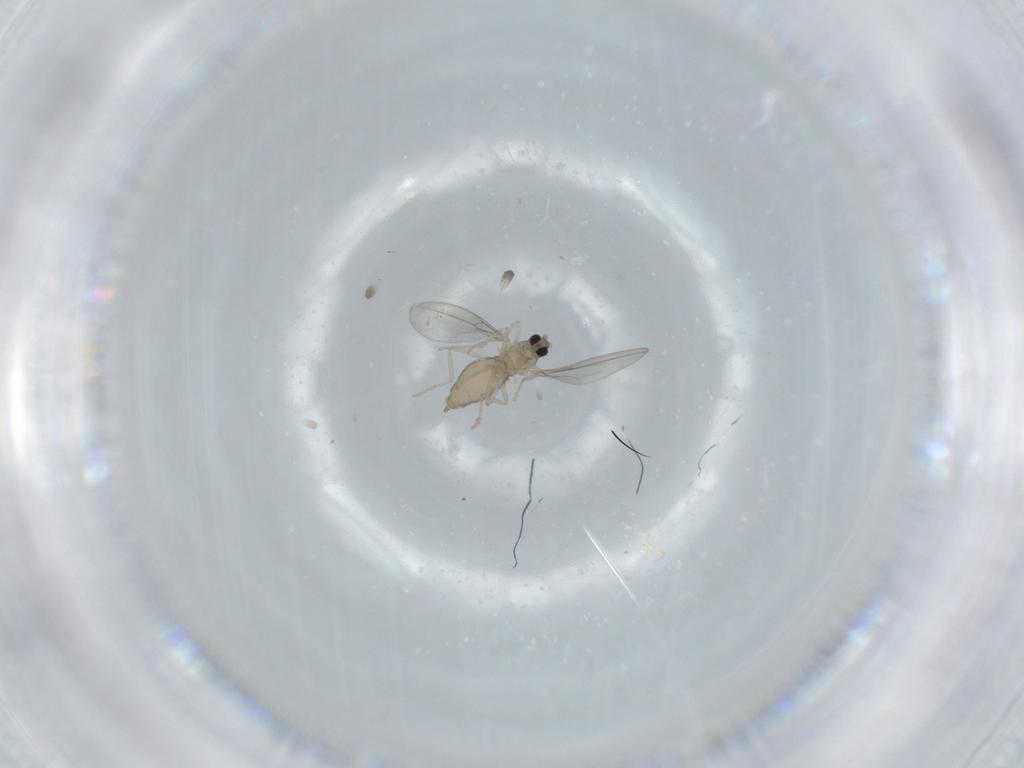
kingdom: Animalia
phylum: Arthropoda
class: Insecta
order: Diptera
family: Cecidomyiidae
